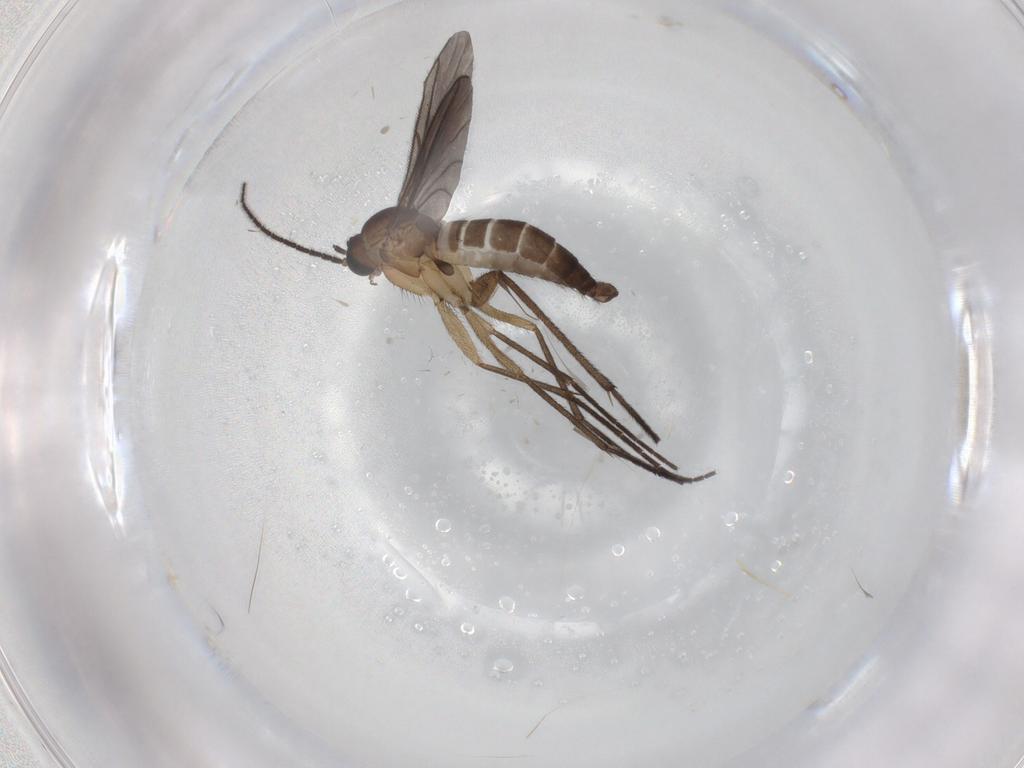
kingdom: Animalia
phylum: Arthropoda
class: Insecta
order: Diptera
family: Sciaridae
